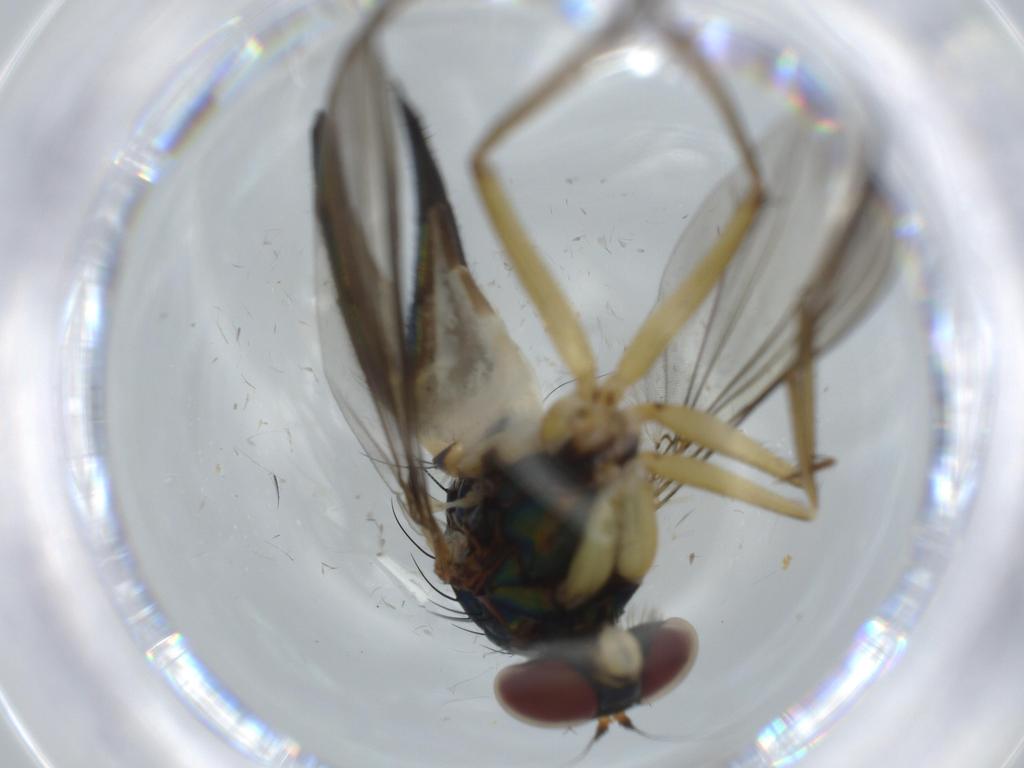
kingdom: Animalia
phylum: Arthropoda
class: Insecta
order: Diptera
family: Dolichopodidae
